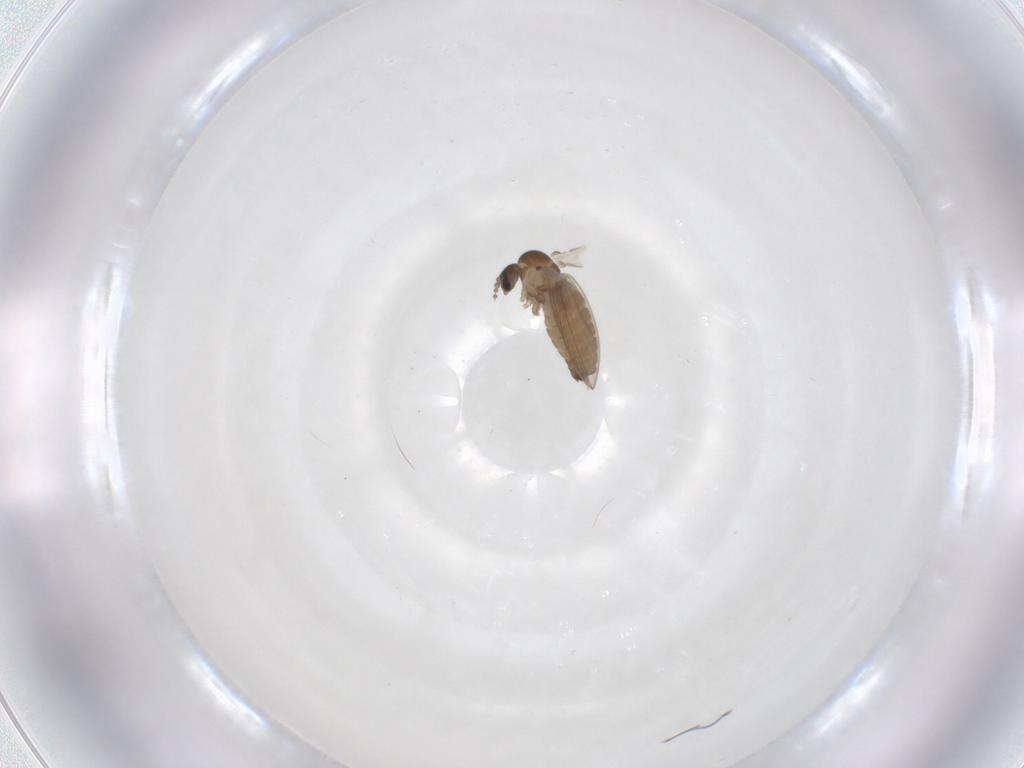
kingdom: Animalia
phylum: Arthropoda
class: Insecta
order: Diptera
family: Psychodidae
